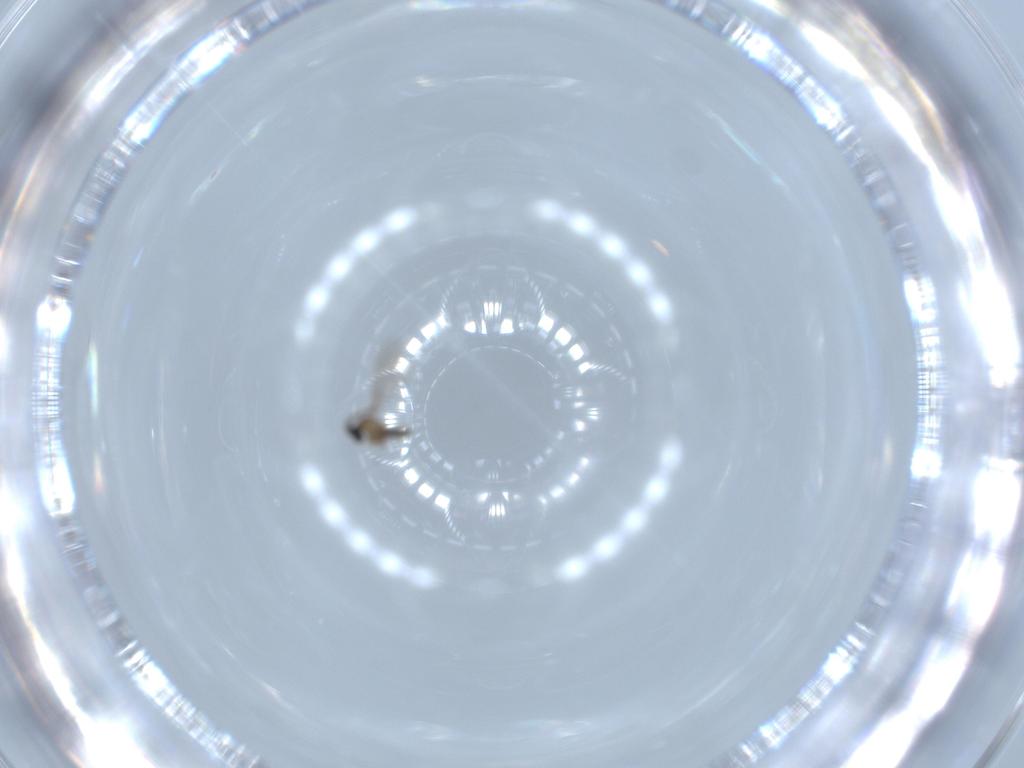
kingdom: Animalia
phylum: Arthropoda
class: Insecta
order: Diptera
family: Cecidomyiidae
